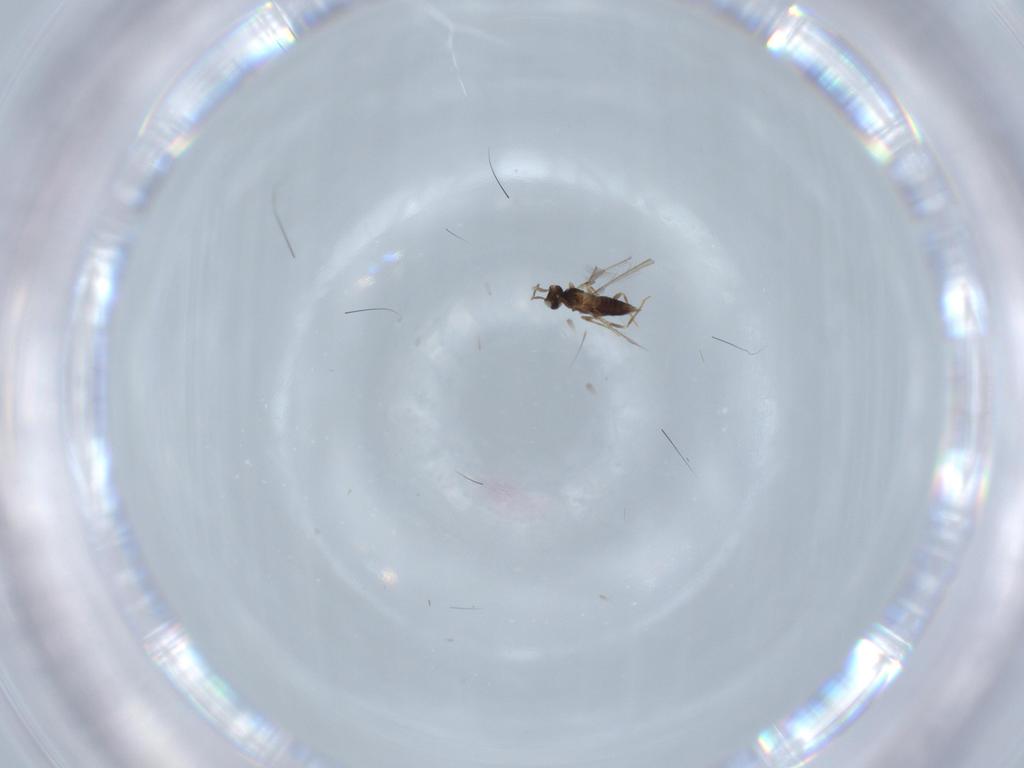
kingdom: Animalia
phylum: Arthropoda
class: Insecta
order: Hymenoptera
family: Mymaridae
